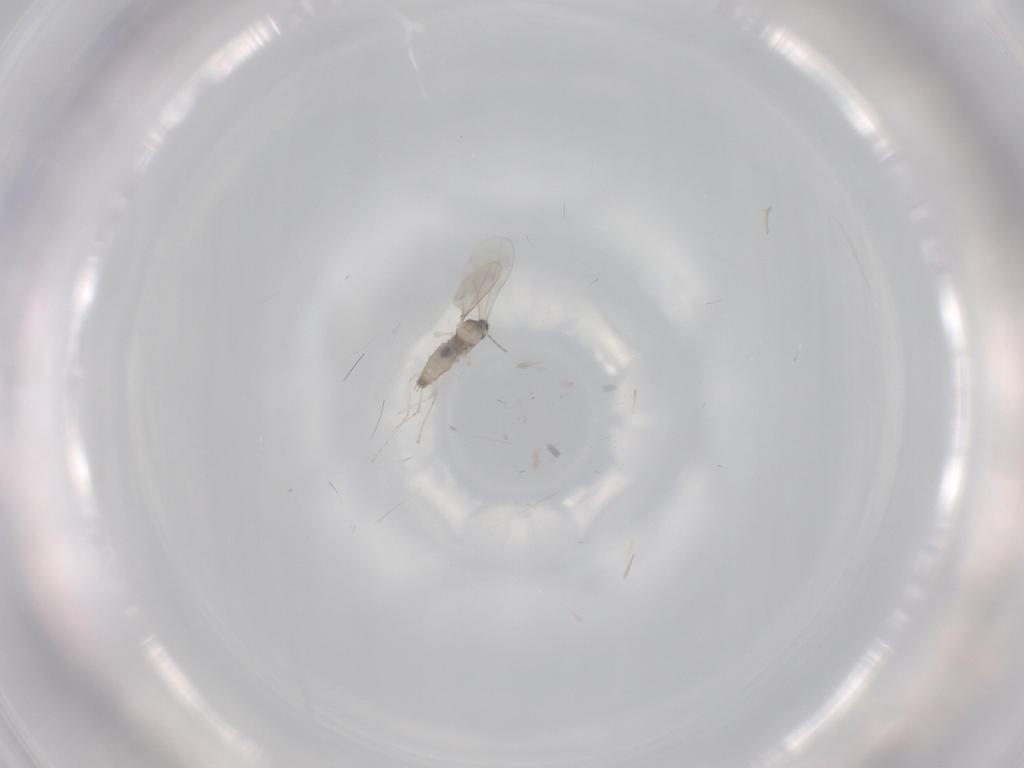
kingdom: Animalia
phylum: Arthropoda
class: Insecta
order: Diptera
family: Cecidomyiidae
